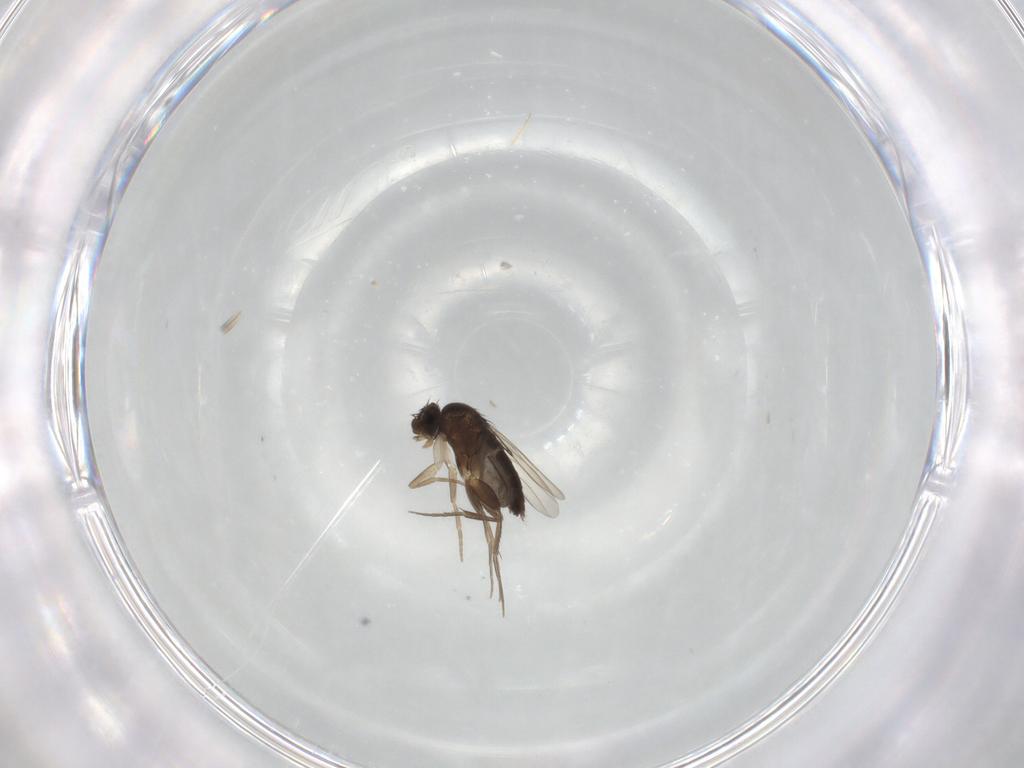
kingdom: Animalia
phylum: Arthropoda
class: Insecta
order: Diptera
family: Phoridae
